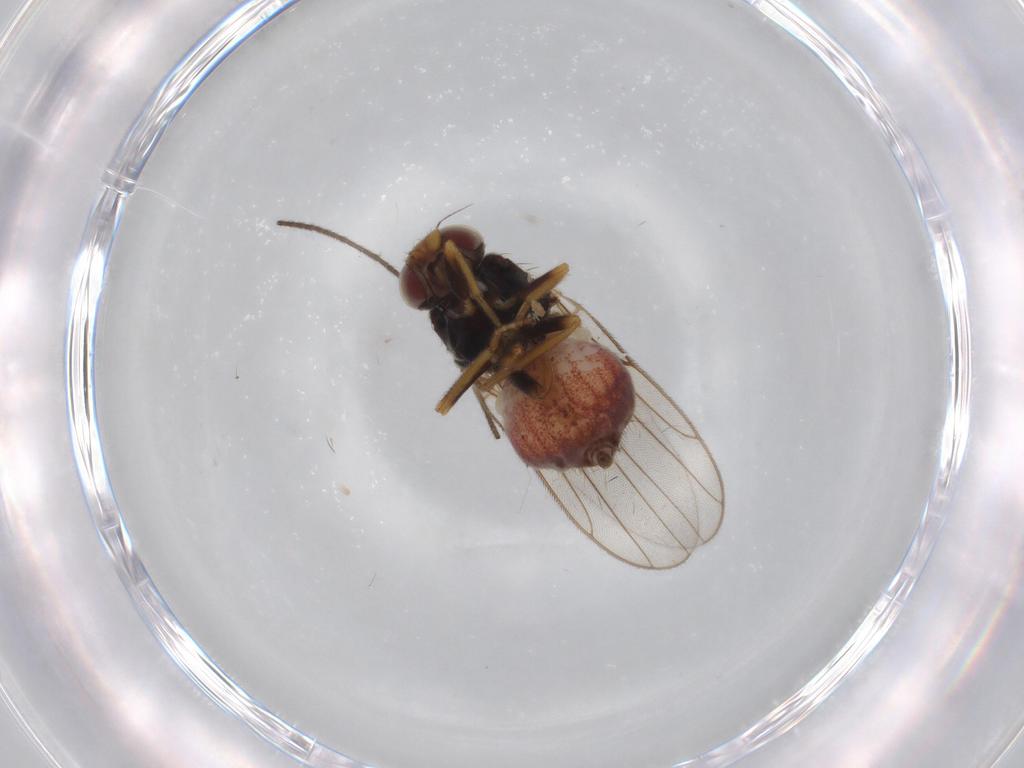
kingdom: Animalia
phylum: Arthropoda
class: Insecta
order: Diptera
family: Chloropidae
